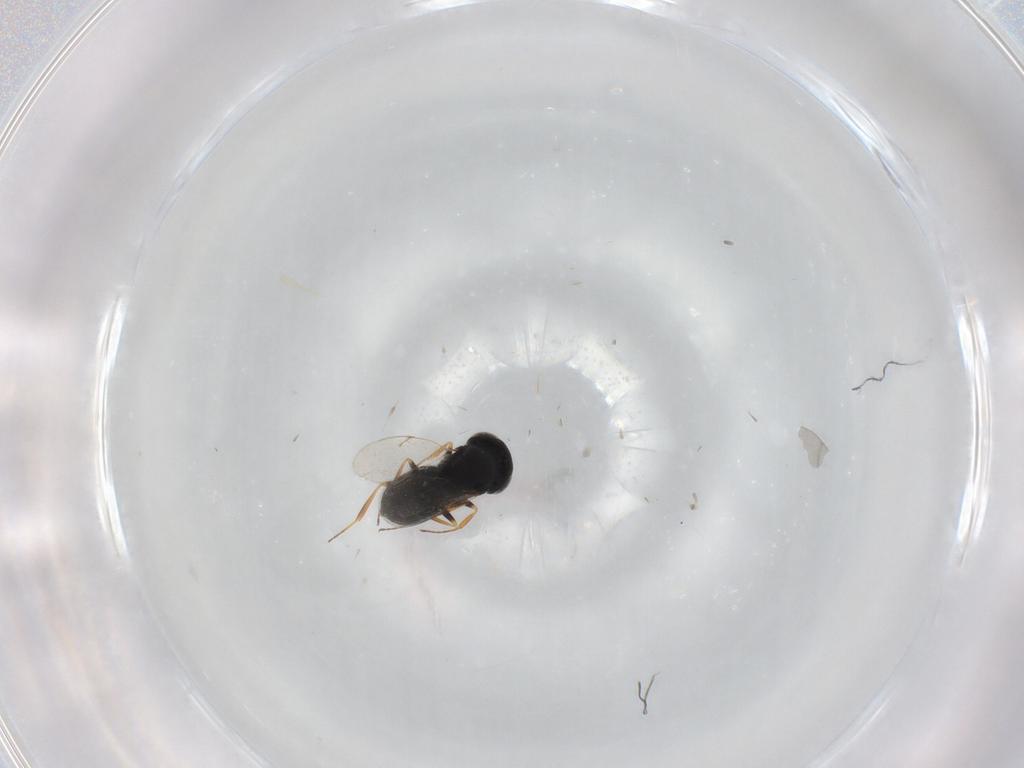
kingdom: Animalia
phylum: Arthropoda
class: Insecta
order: Hymenoptera
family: Scelionidae
